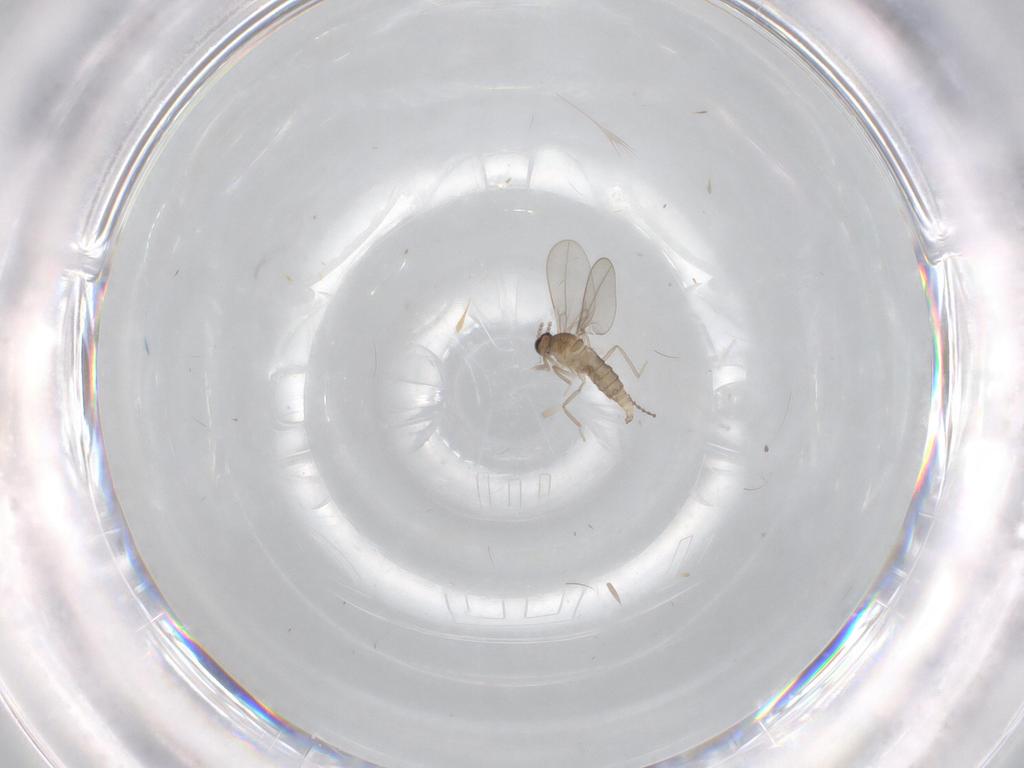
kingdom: Animalia
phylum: Arthropoda
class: Insecta
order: Diptera
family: Cecidomyiidae
